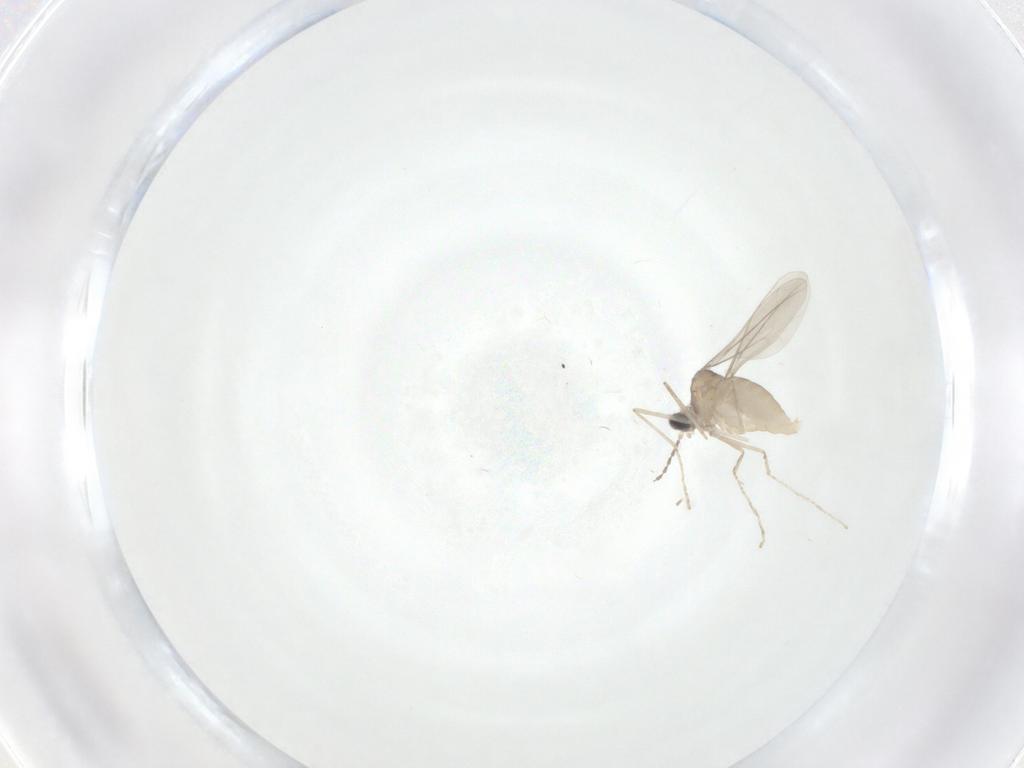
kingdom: Animalia
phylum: Arthropoda
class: Insecta
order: Diptera
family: Cecidomyiidae
